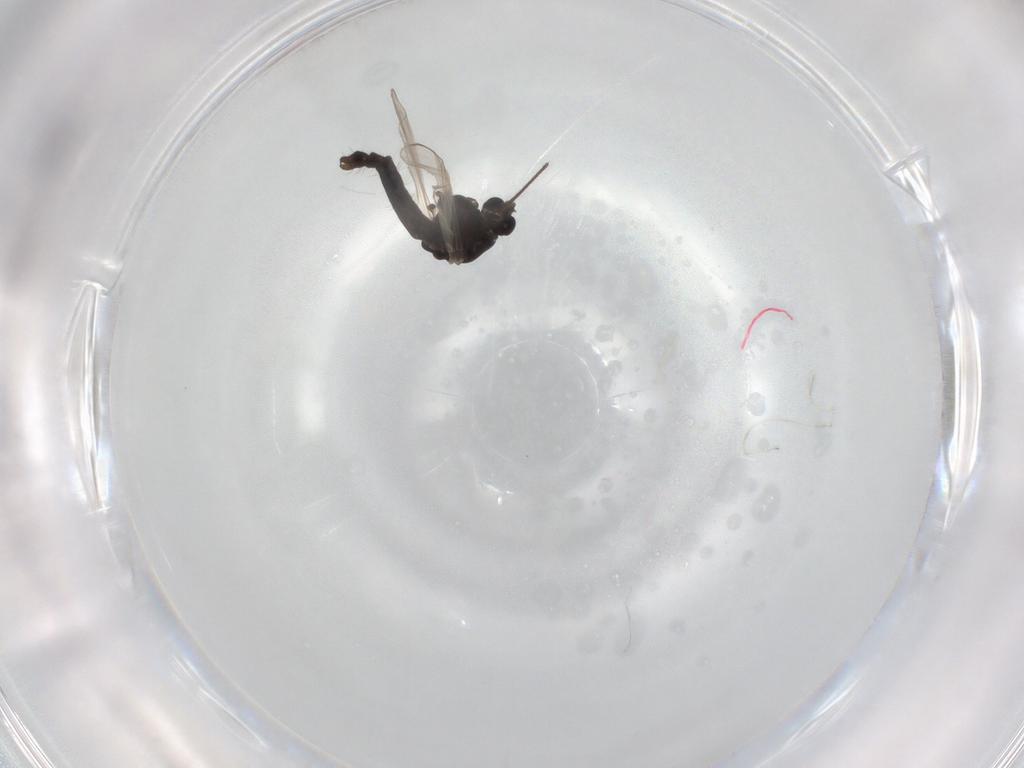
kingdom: Animalia
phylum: Arthropoda
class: Insecta
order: Diptera
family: Chironomidae
